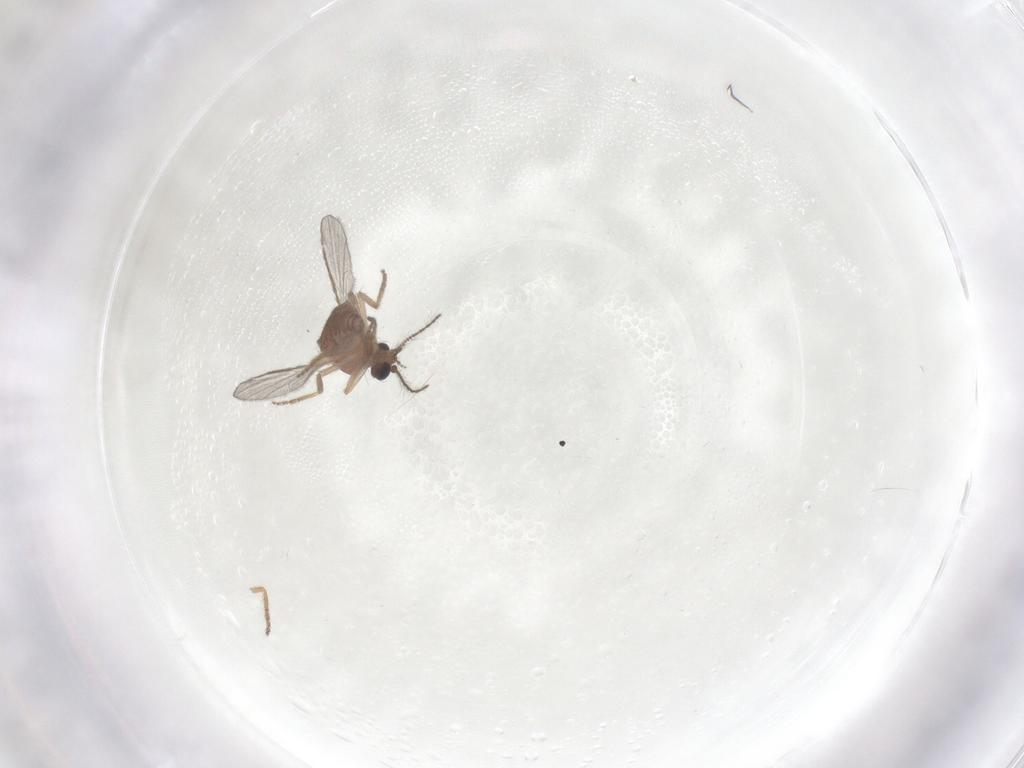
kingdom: Animalia
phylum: Arthropoda
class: Insecta
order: Diptera
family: Ceratopogonidae
